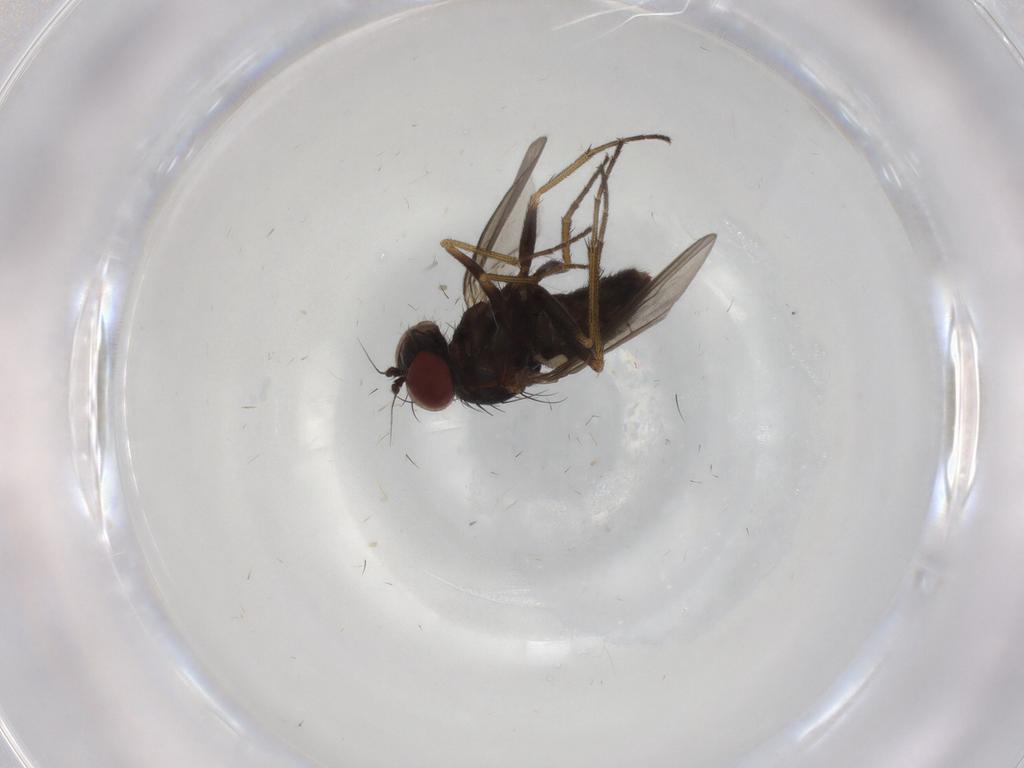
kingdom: Animalia
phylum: Arthropoda
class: Insecta
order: Diptera
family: Dolichopodidae
